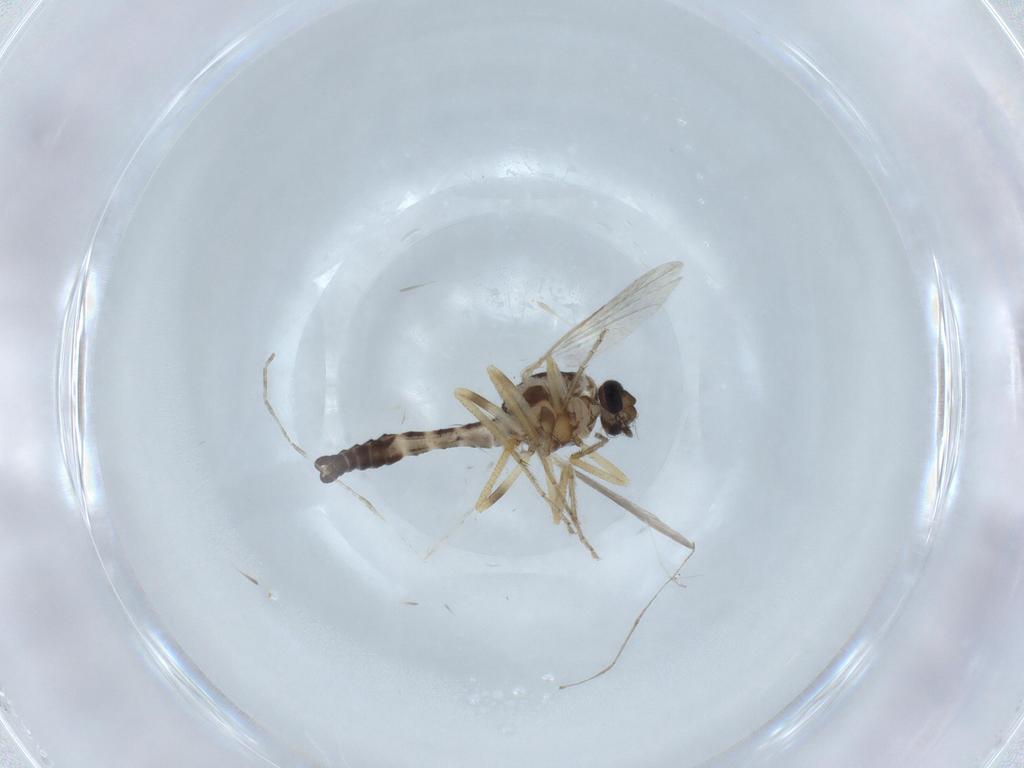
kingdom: Animalia
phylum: Arthropoda
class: Insecta
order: Diptera
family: Ceratopogonidae
